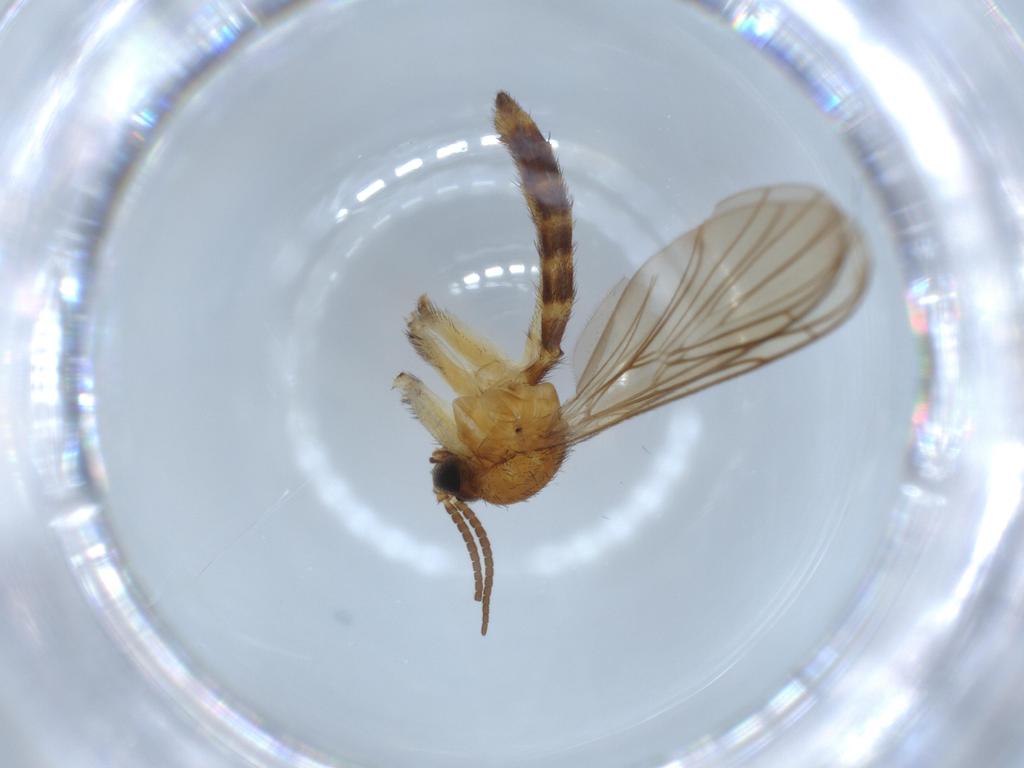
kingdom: Animalia
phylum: Arthropoda
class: Insecta
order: Diptera
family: Phoridae
